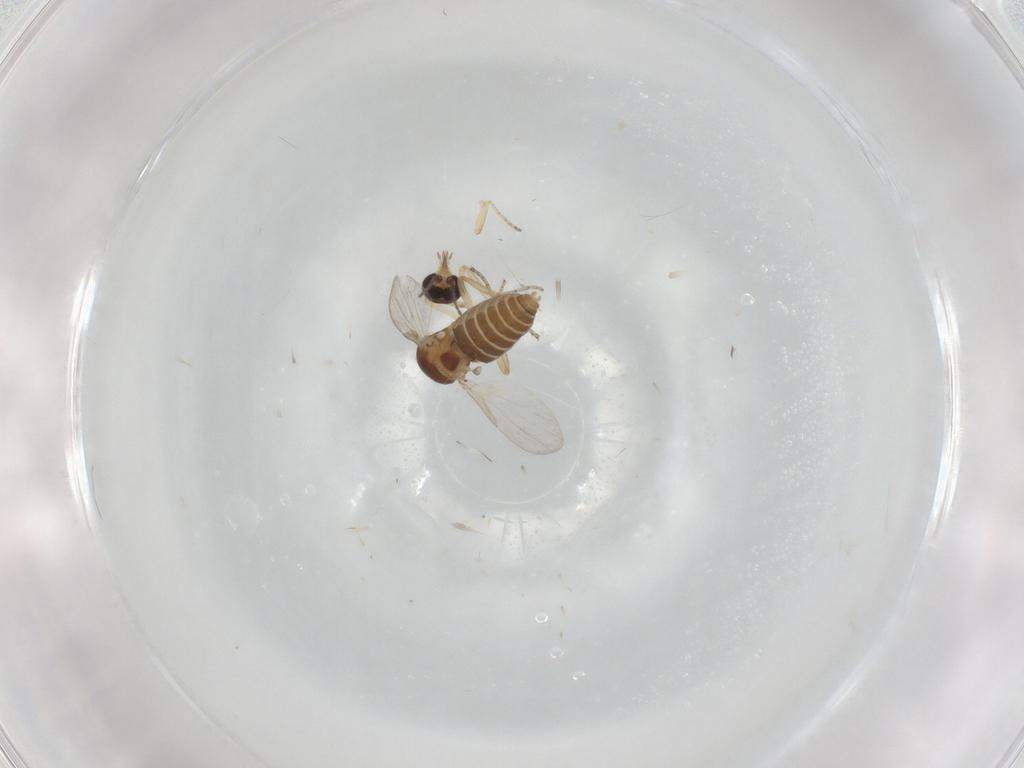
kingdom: Animalia
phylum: Arthropoda
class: Insecta
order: Diptera
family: Ceratopogonidae
